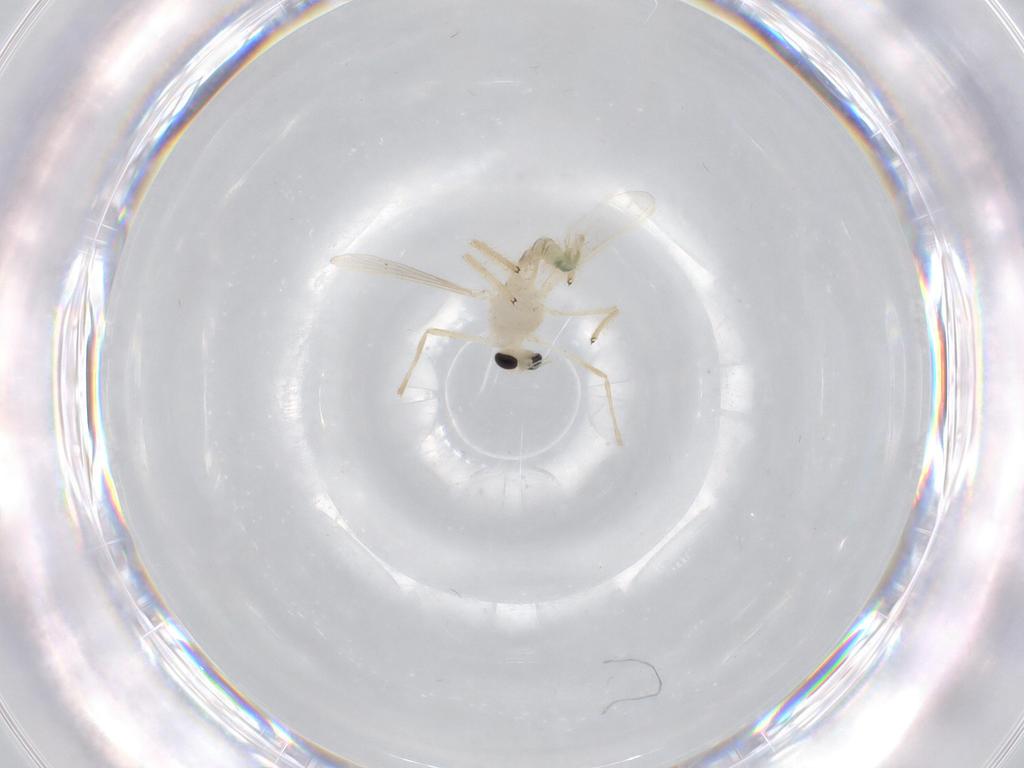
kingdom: Animalia
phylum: Arthropoda
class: Insecta
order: Diptera
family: Chironomidae
